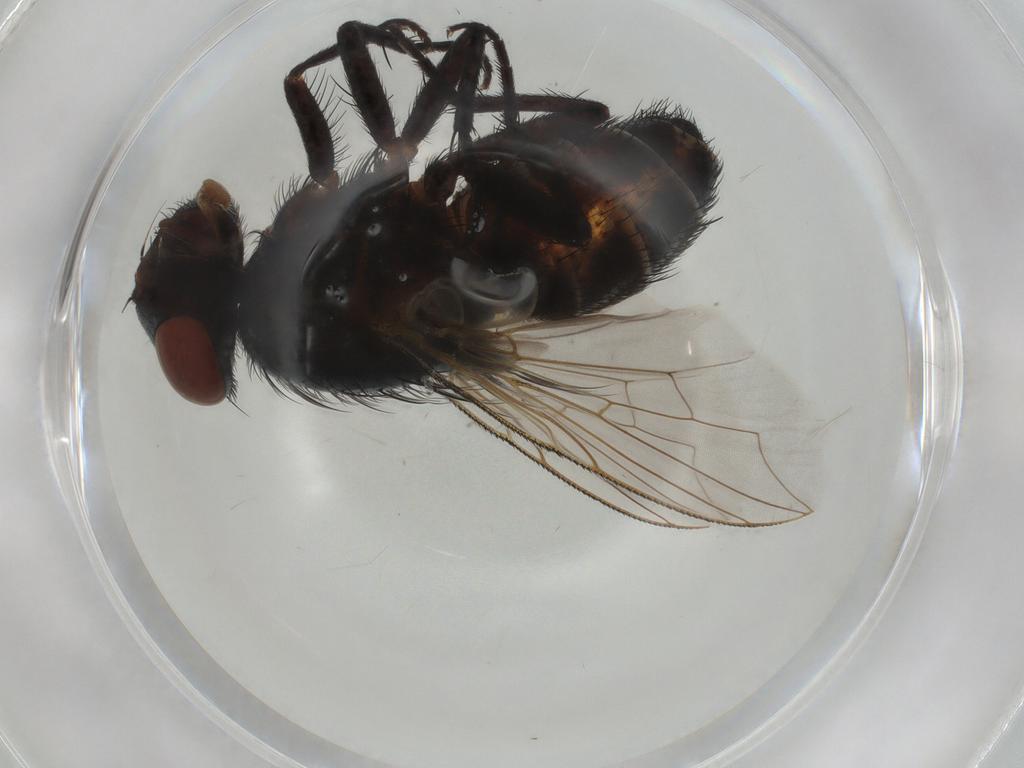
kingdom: Animalia
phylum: Arthropoda
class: Insecta
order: Diptera
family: Sarcophagidae
